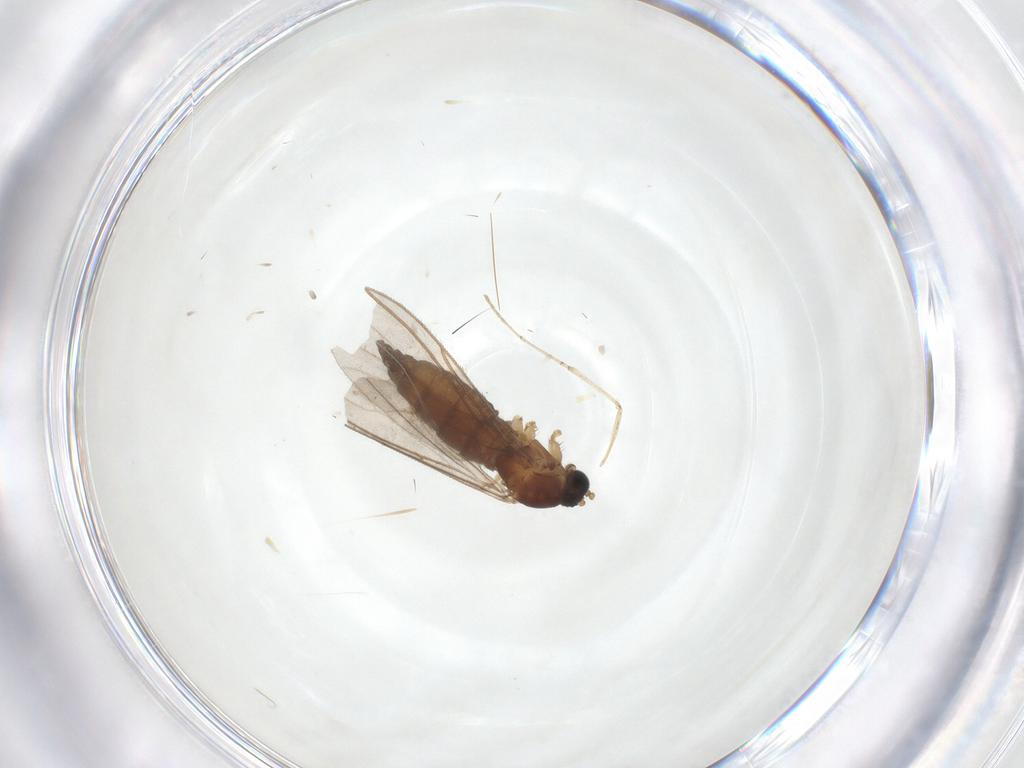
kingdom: Animalia
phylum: Arthropoda
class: Insecta
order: Diptera
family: Sciaridae
